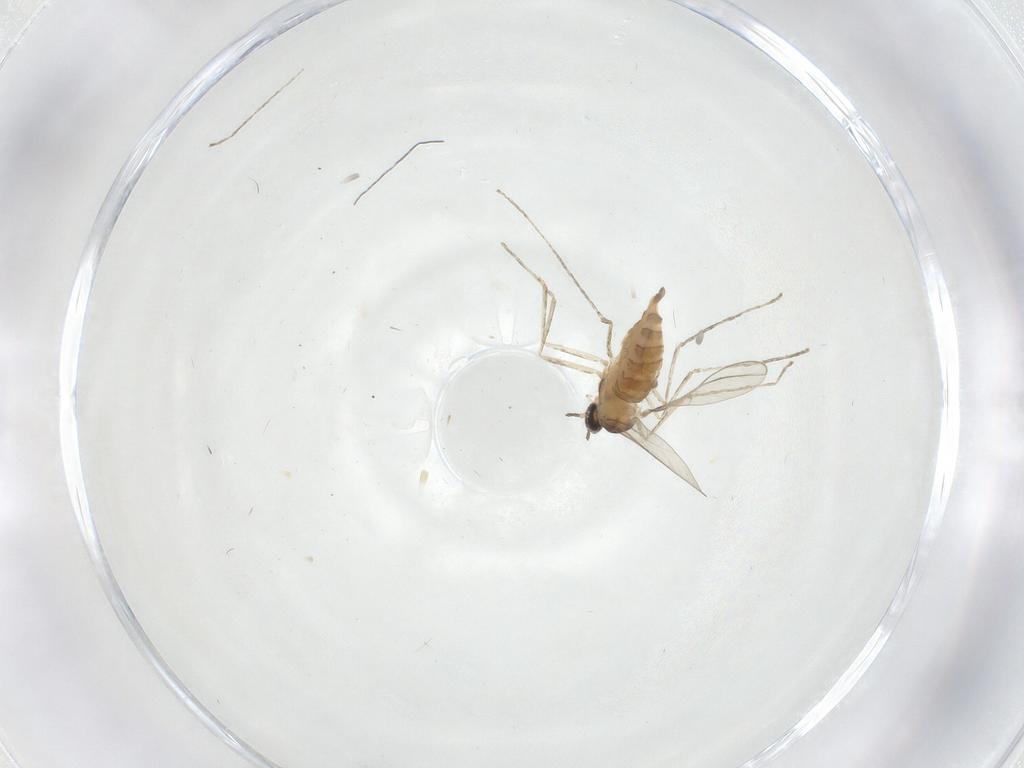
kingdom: Animalia
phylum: Arthropoda
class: Insecta
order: Diptera
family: Cecidomyiidae
